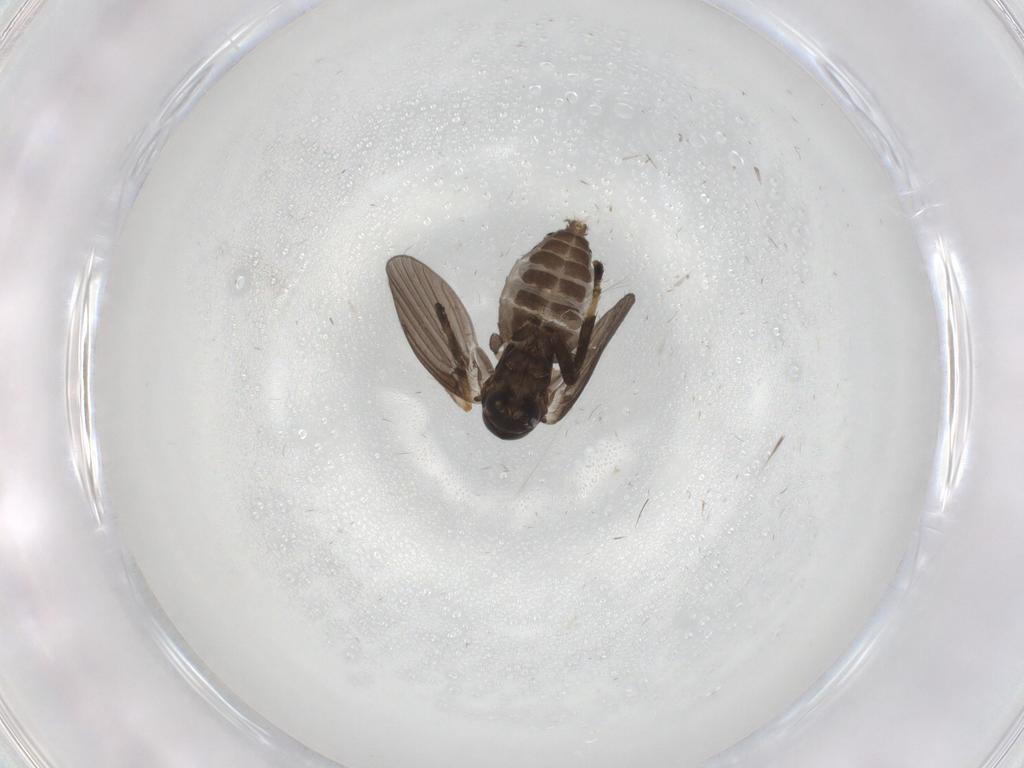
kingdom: Animalia
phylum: Arthropoda
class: Insecta
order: Diptera
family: Psychodidae
